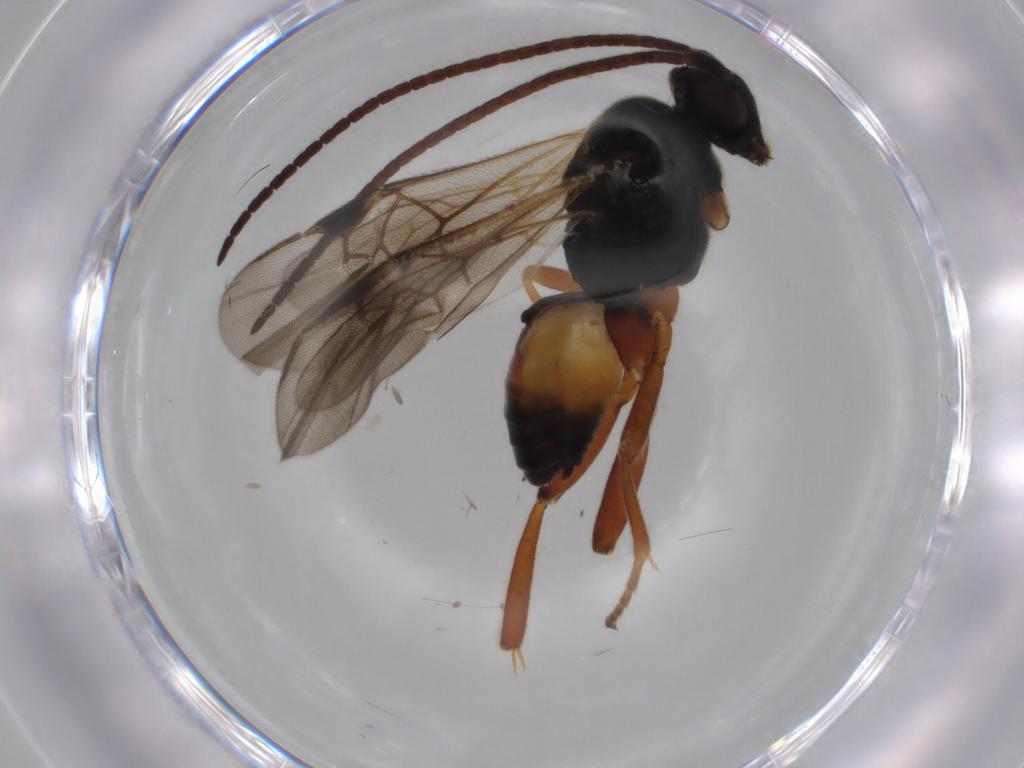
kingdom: Animalia
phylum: Arthropoda
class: Insecta
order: Hymenoptera
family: Braconidae
